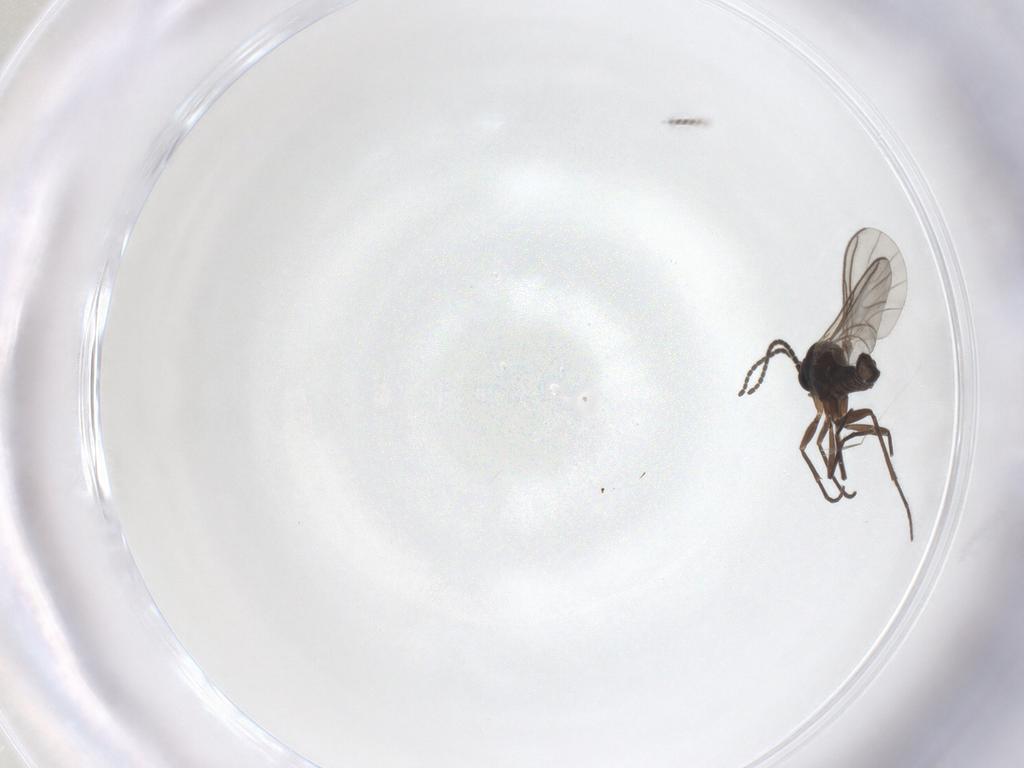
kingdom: Animalia
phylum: Arthropoda
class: Insecta
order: Diptera
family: Sciaridae
